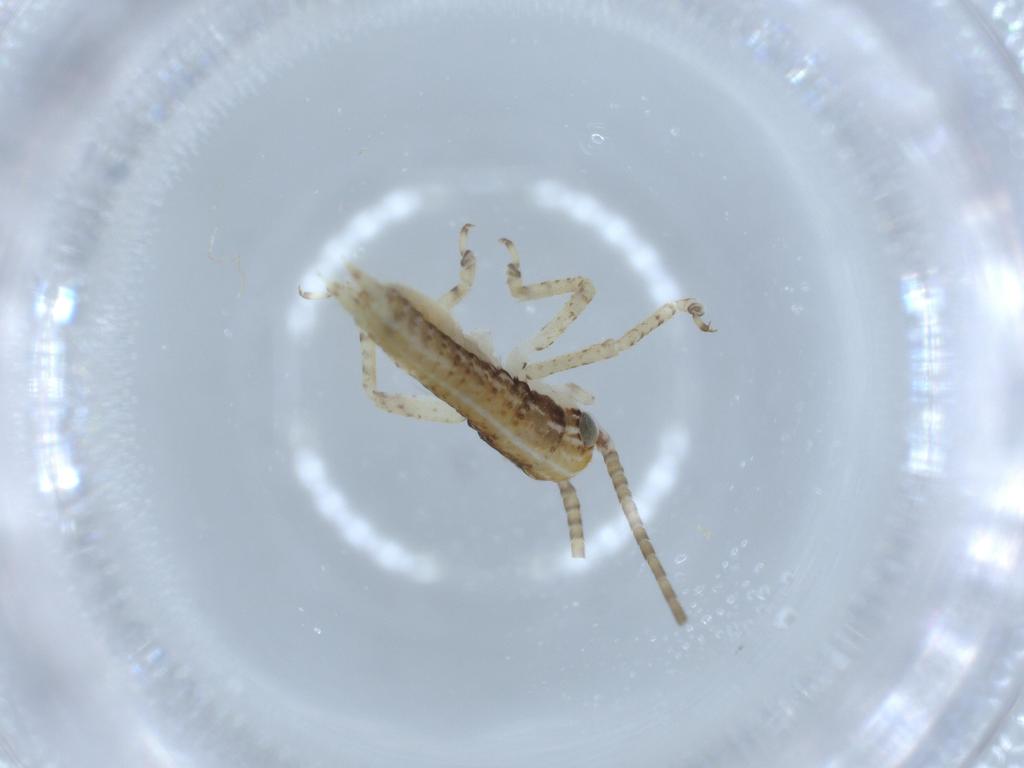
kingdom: Animalia
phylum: Arthropoda
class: Insecta
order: Orthoptera
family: Gryllidae
